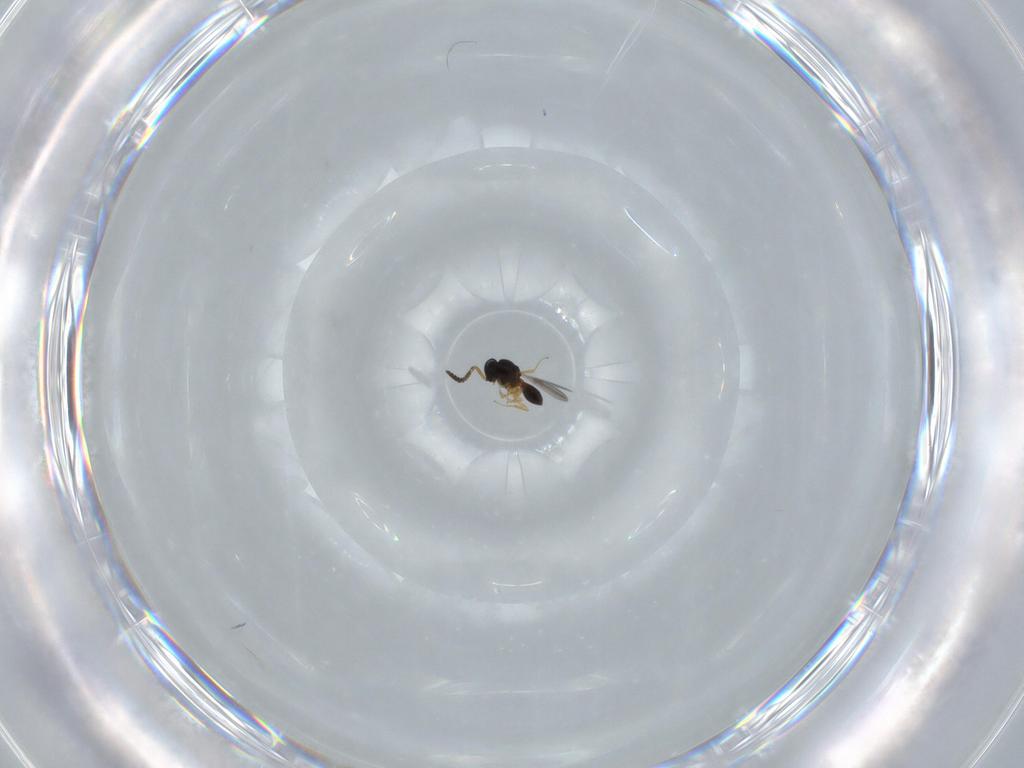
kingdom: Animalia
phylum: Arthropoda
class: Insecta
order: Hymenoptera
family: Scelionidae
